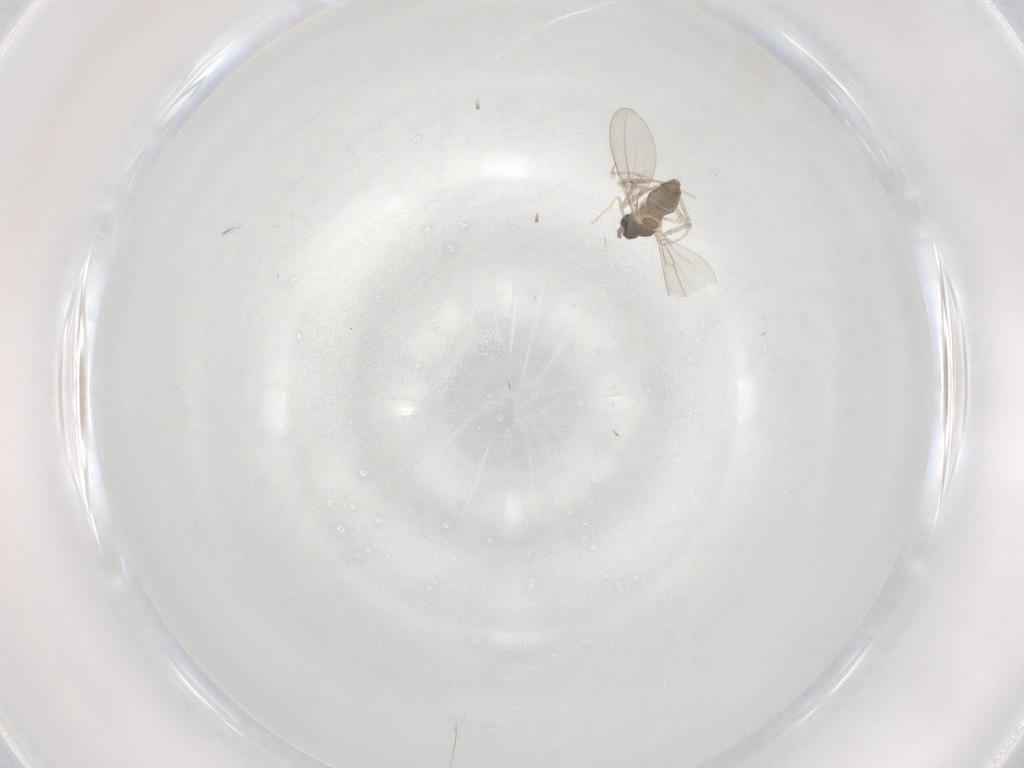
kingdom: Animalia
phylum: Arthropoda
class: Insecta
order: Diptera
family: Cecidomyiidae
